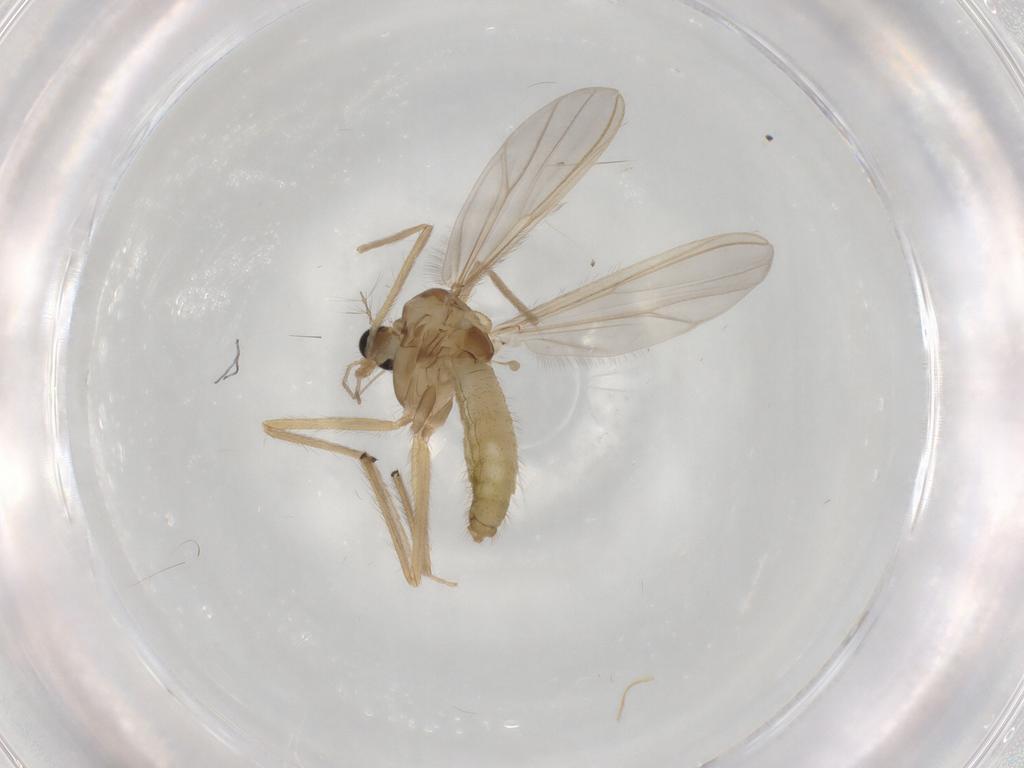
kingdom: Animalia
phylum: Arthropoda
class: Insecta
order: Diptera
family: Chironomidae
